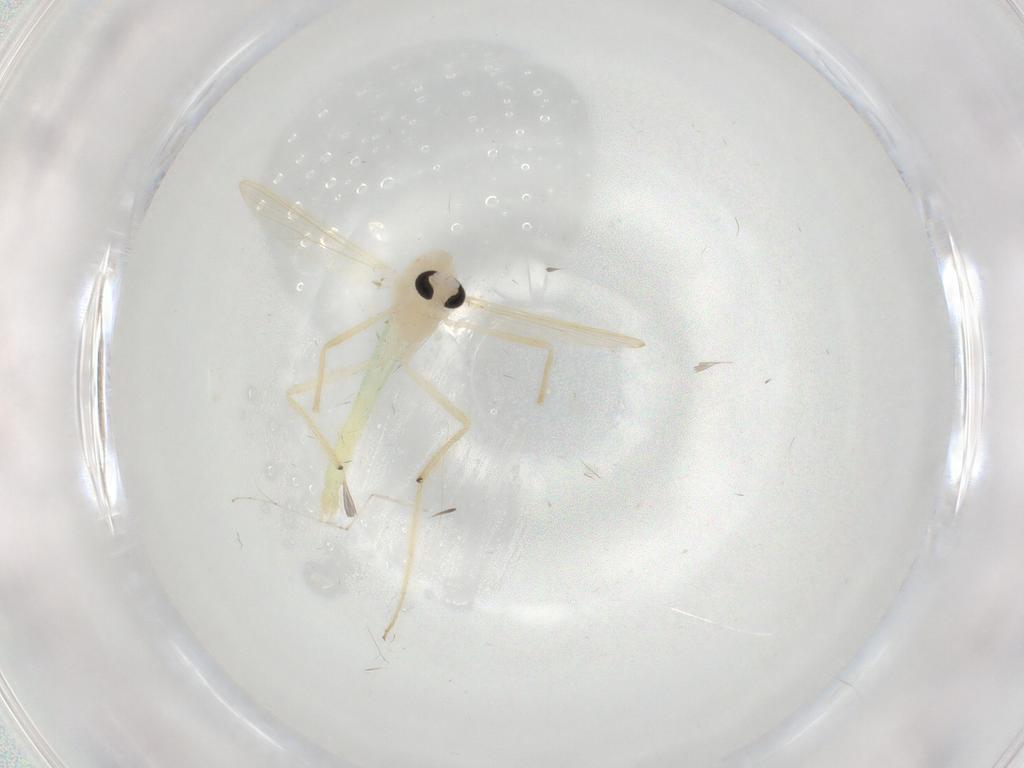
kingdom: Animalia
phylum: Arthropoda
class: Insecta
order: Diptera
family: Chironomidae
